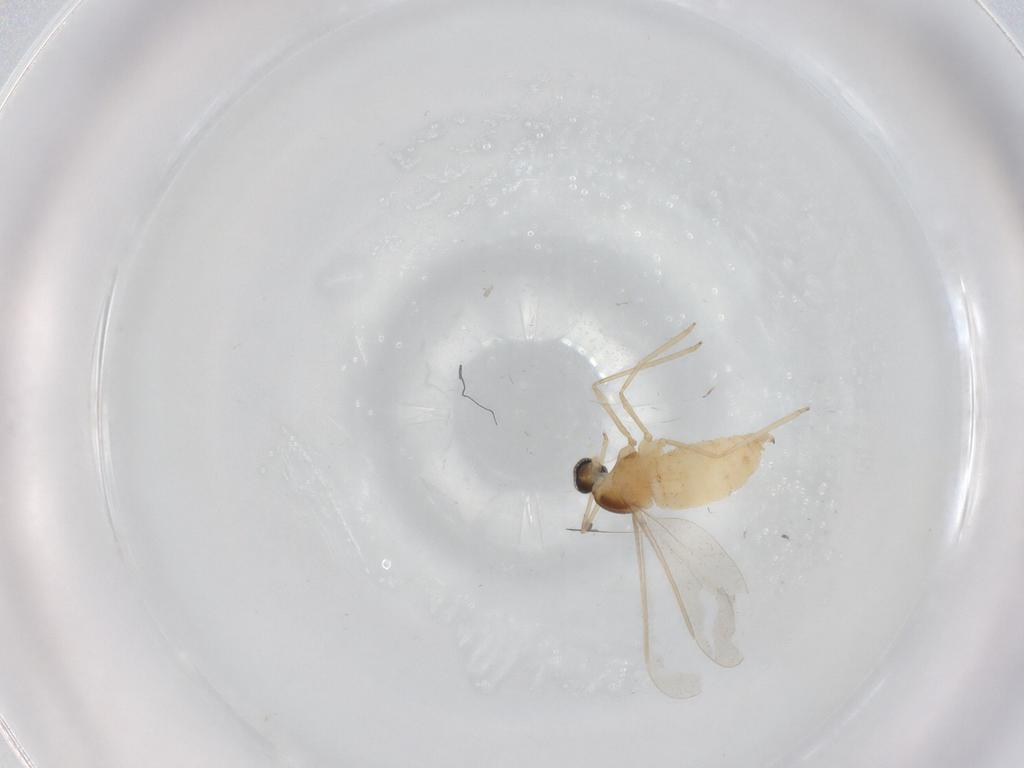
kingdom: Animalia
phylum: Arthropoda
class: Insecta
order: Diptera
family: Cecidomyiidae
